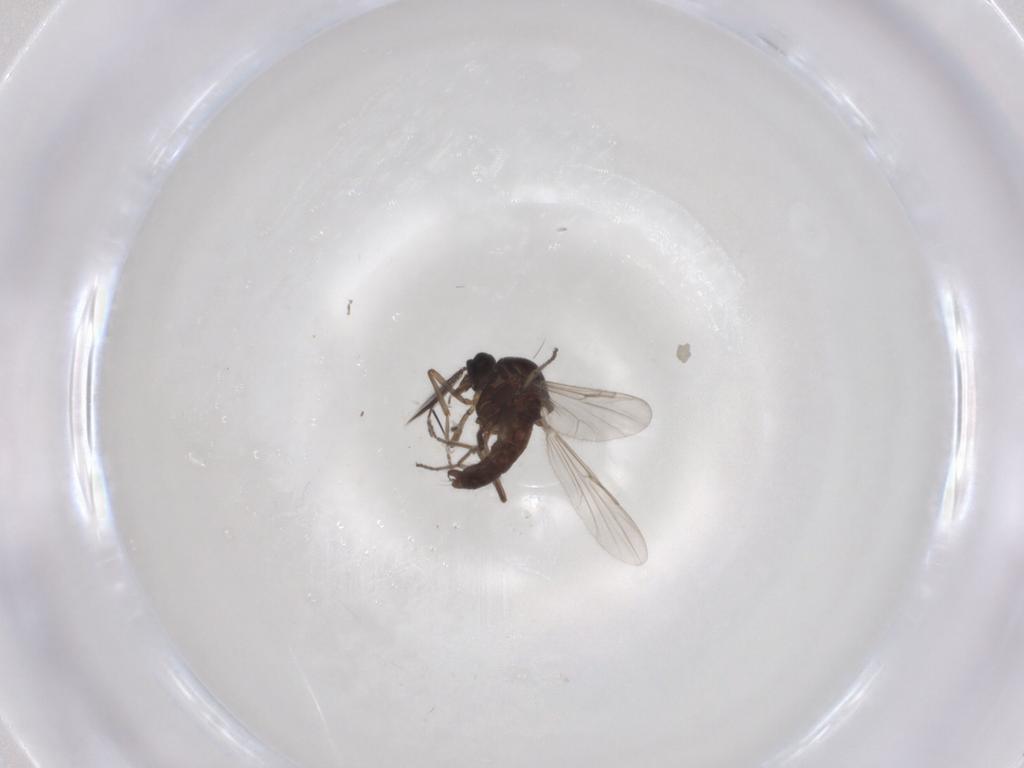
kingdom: Animalia
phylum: Arthropoda
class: Insecta
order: Diptera
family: Ceratopogonidae
